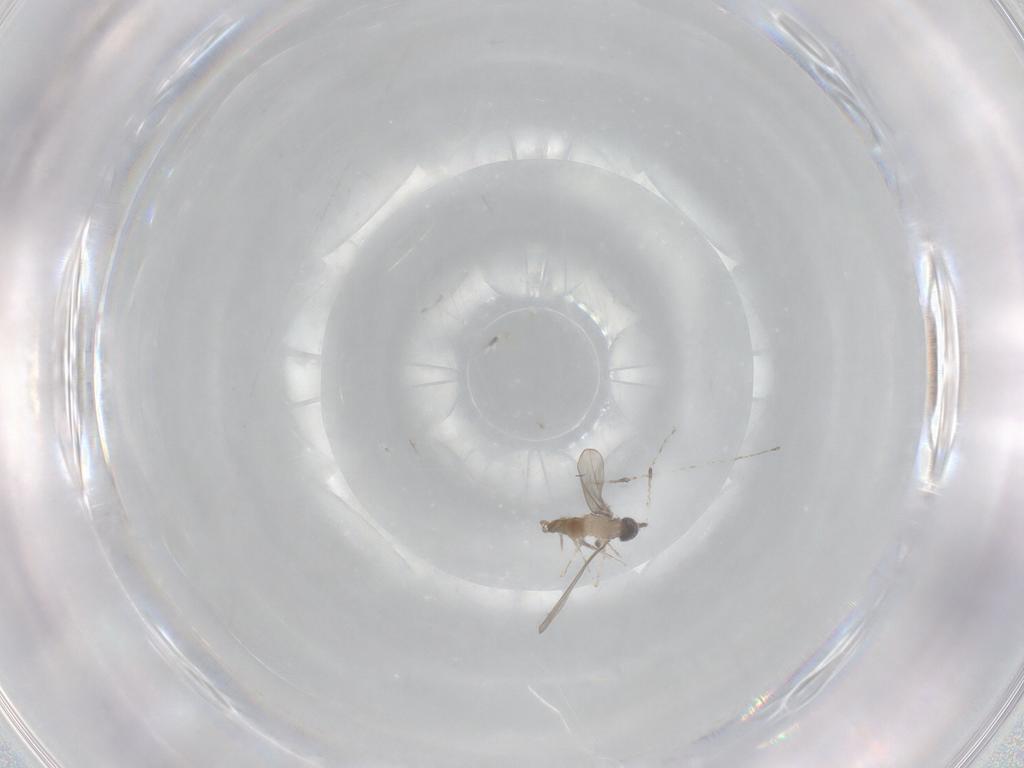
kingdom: Animalia
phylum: Arthropoda
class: Insecta
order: Diptera
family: Cecidomyiidae
